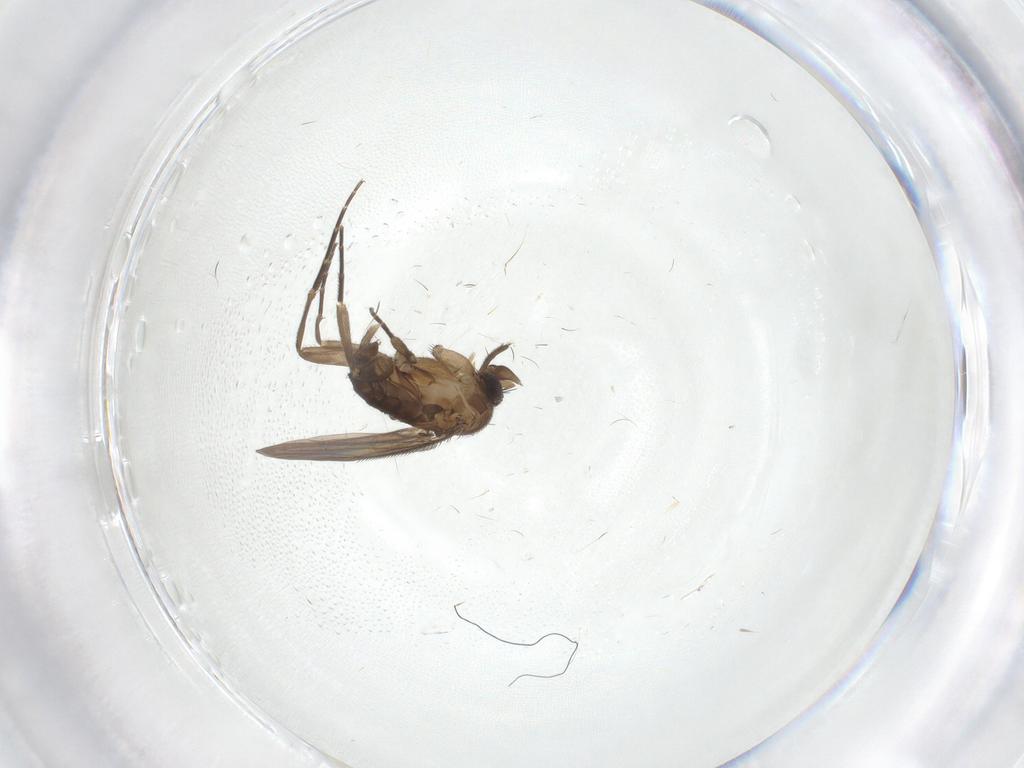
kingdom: Animalia
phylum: Arthropoda
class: Insecta
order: Diptera
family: Phoridae
